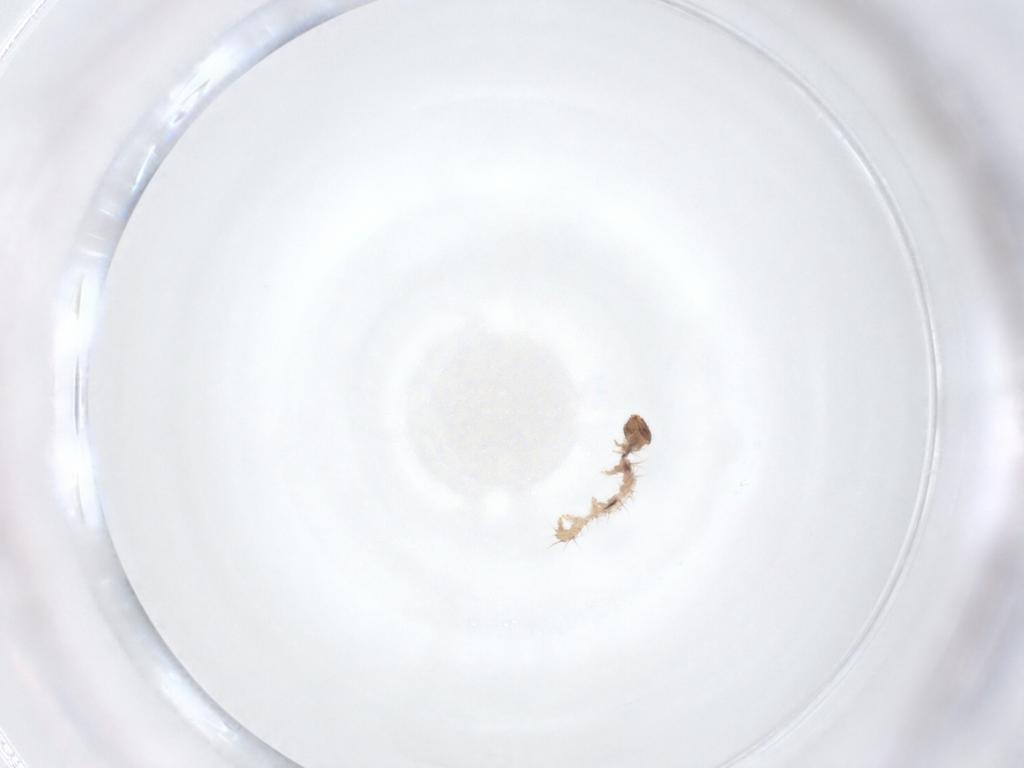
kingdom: Animalia
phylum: Arthropoda
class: Insecta
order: Lepidoptera
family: Erebidae
